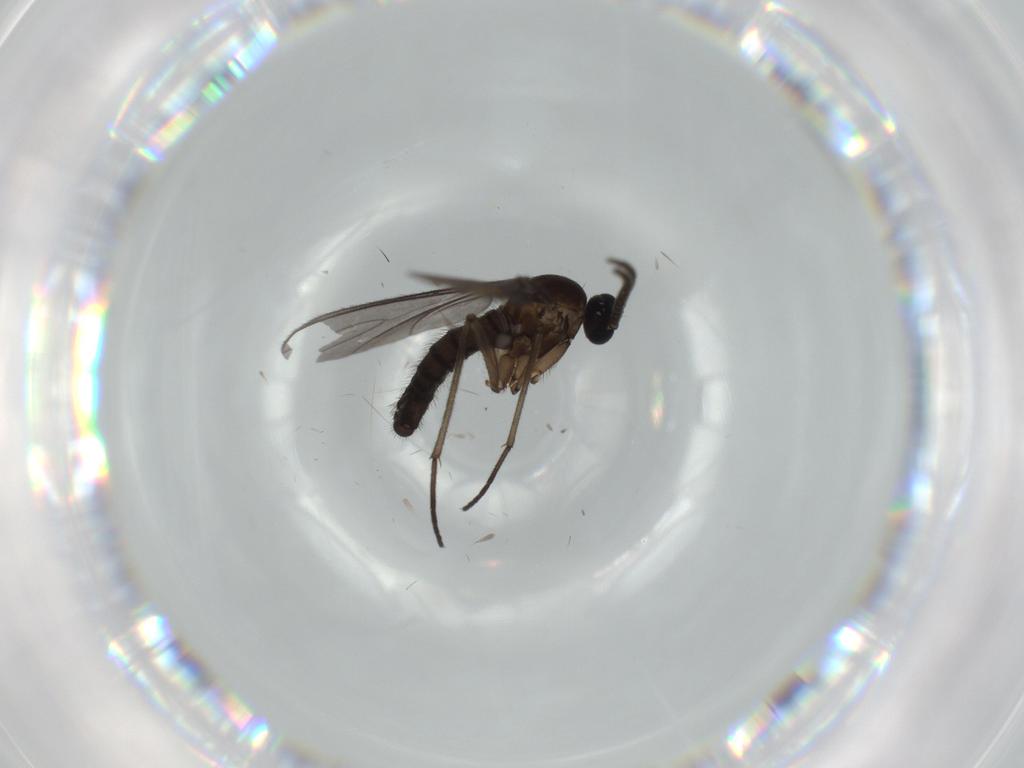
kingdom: Animalia
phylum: Arthropoda
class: Insecta
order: Diptera
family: Sciaridae
